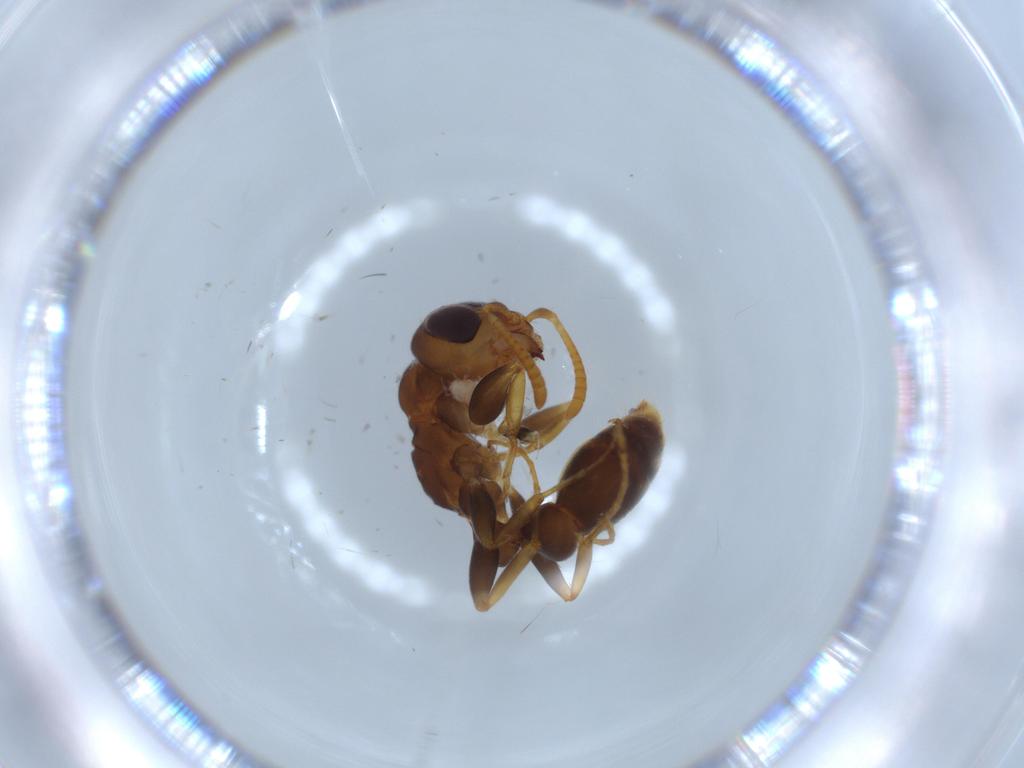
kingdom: Animalia
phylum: Arthropoda
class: Insecta
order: Hymenoptera
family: Formicidae
